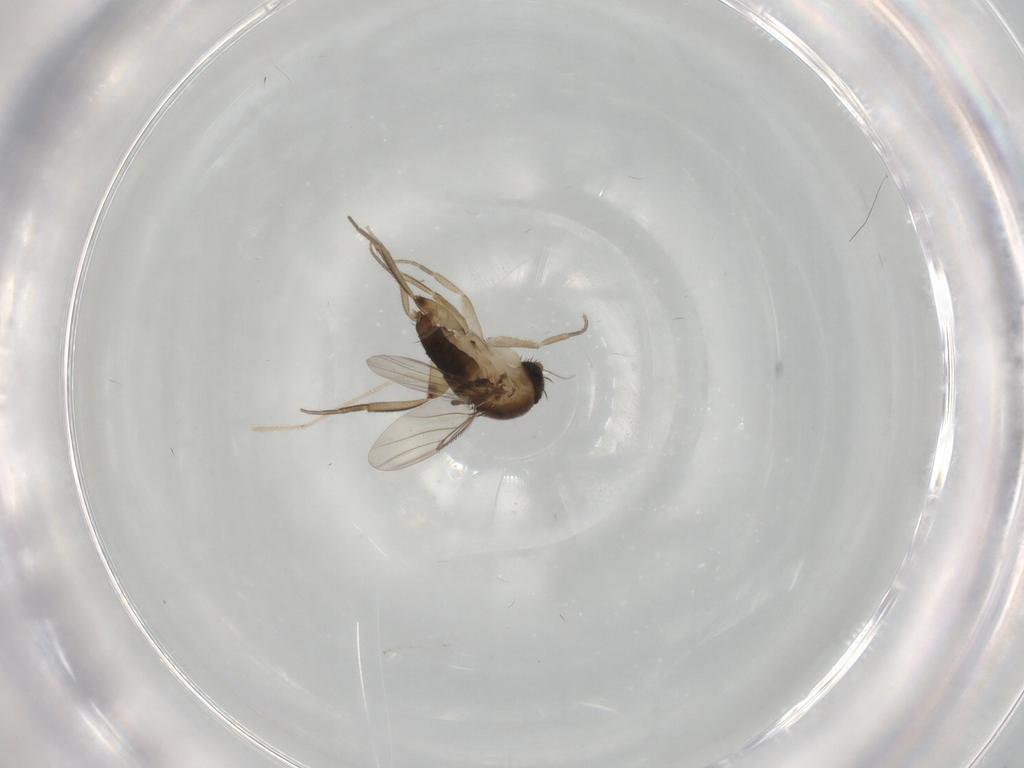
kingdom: Animalia
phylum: Arthropoda
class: Insecta
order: Diptera
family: Phoridae
